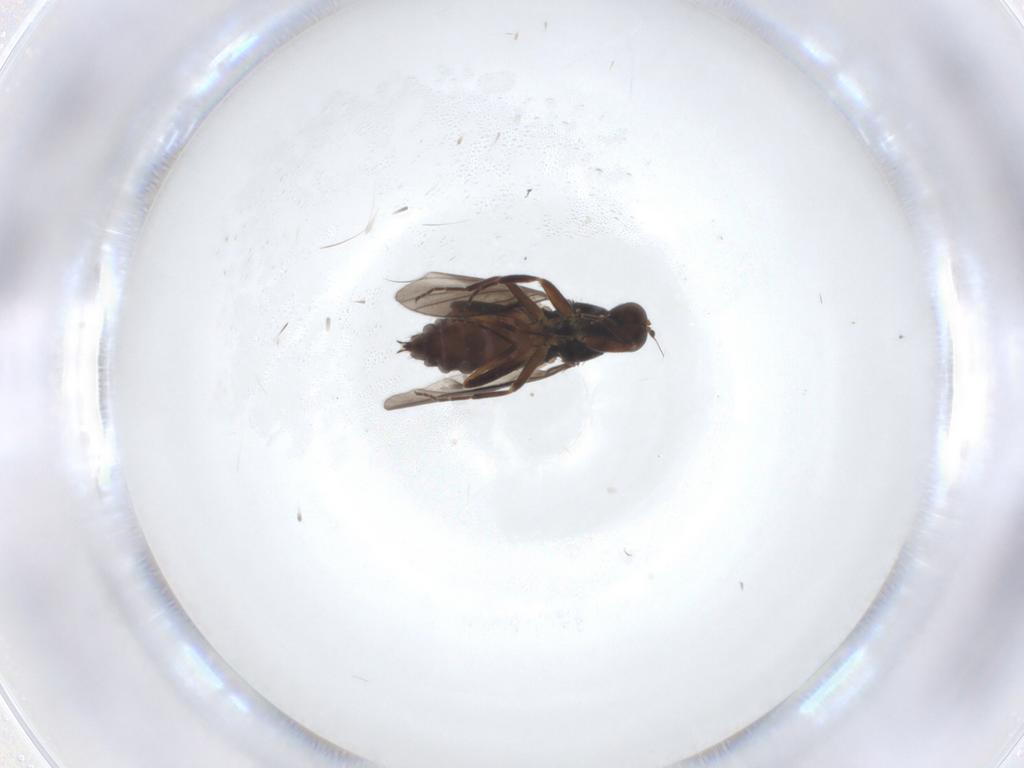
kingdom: Animalia
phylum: Arthropoda
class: Insecta
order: Diptera
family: Hybotidae
